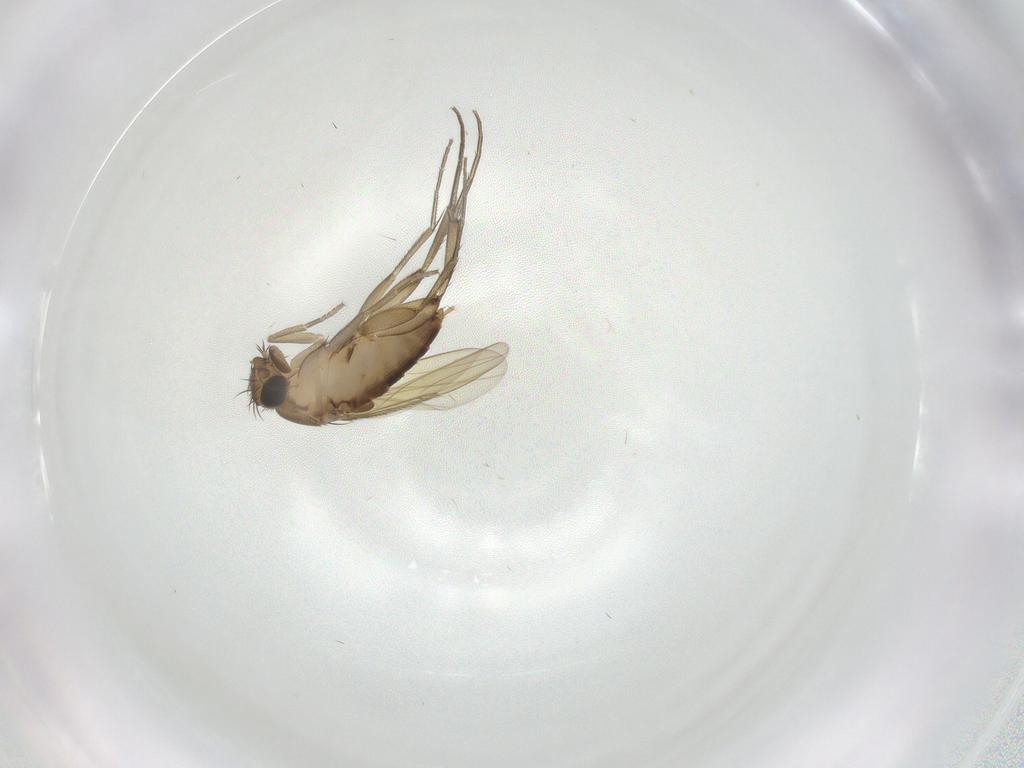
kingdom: Animalia
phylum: Arthropoda
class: Insecta
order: Diptera
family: Phoridae
